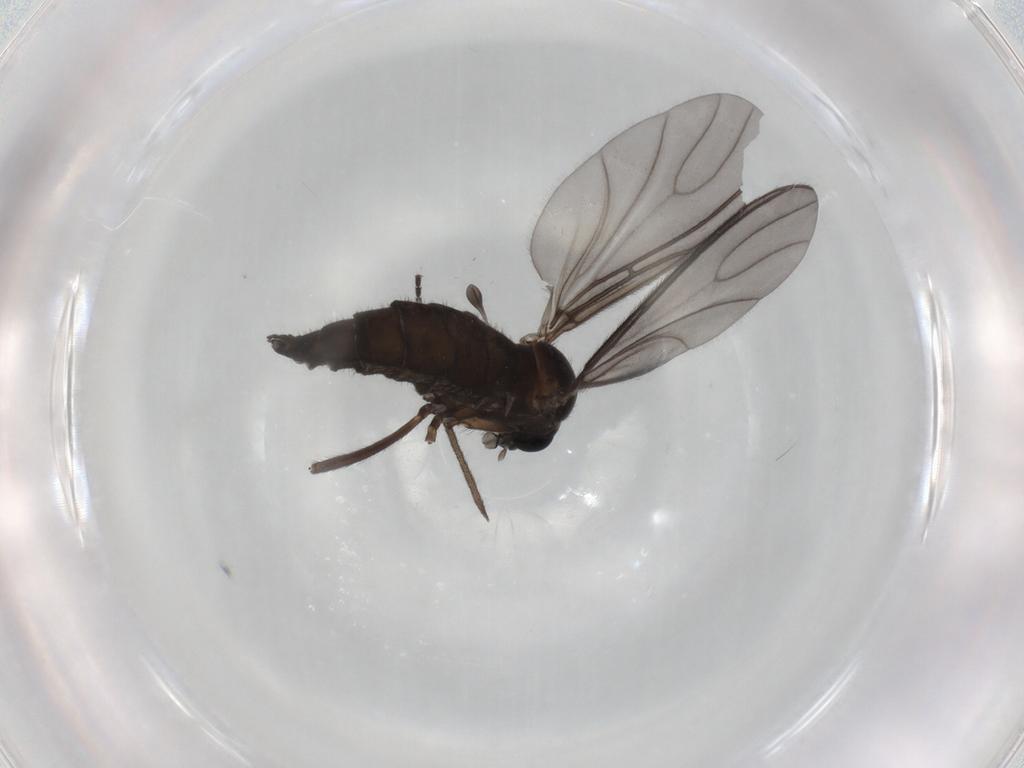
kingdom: Animalia
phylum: Arthropoda
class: Insecta
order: Diptera
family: Sciaridae
